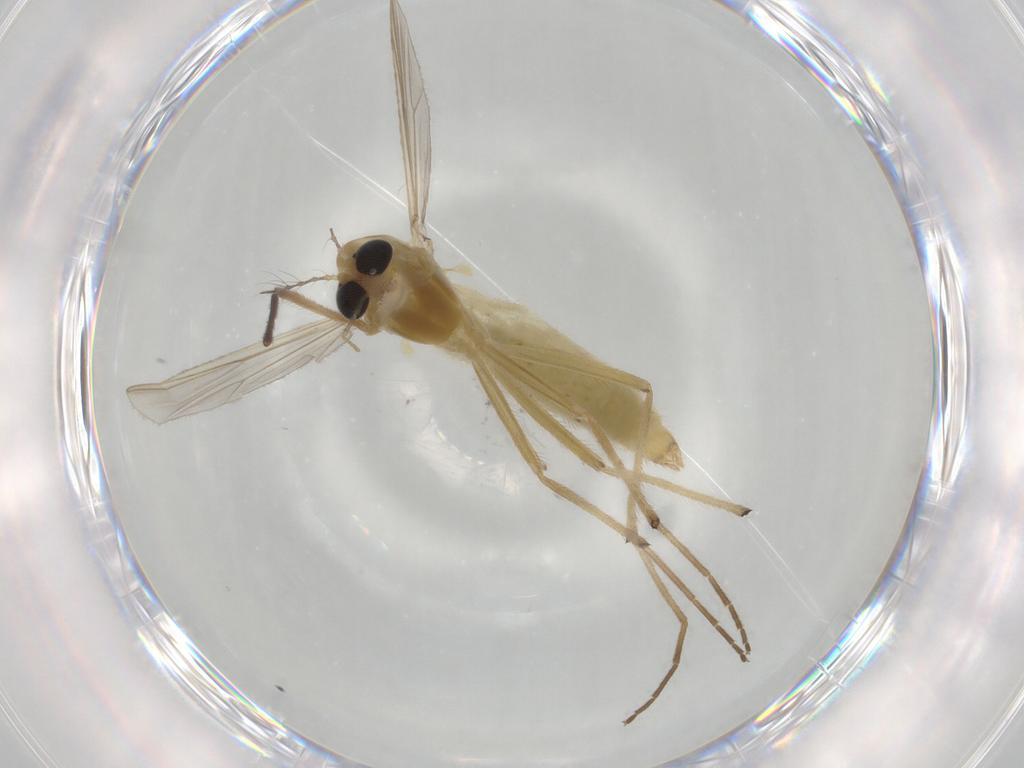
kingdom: Animalia
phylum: Arthropoda
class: Insecta
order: Diptera
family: Chironomidae
